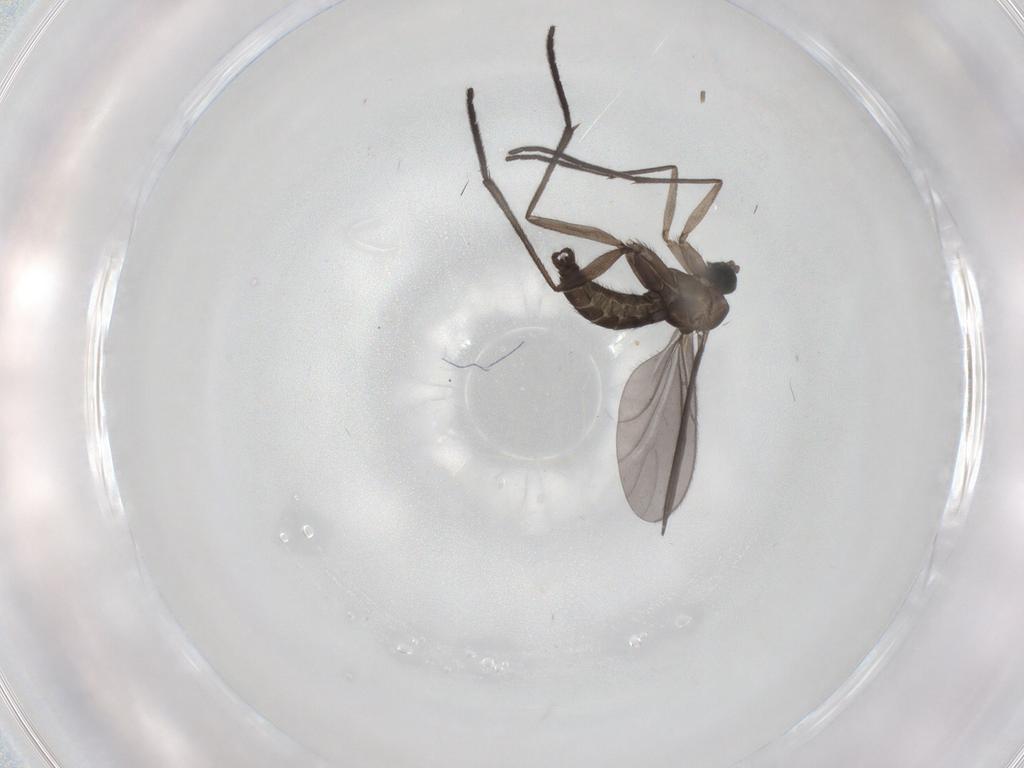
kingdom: Animalia
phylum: Arthropoda
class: Insecta
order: Diptera
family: Sciaridae
